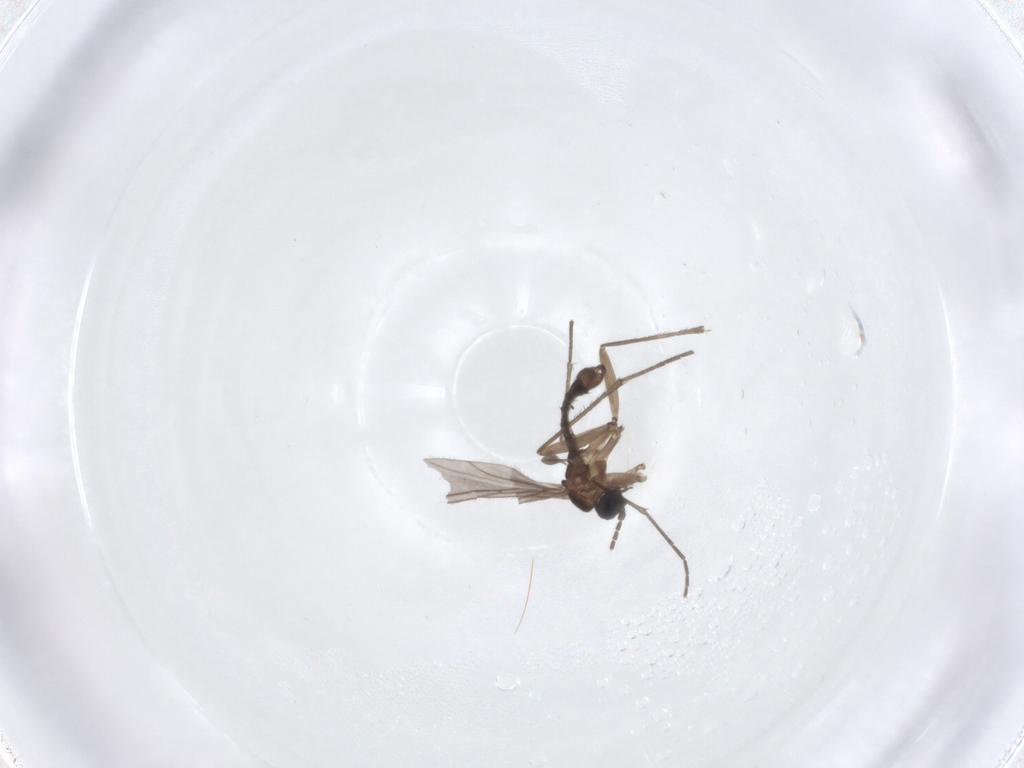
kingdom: Animalia
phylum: Arthropoda
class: Insecta
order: Diptera
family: Sciaridae
